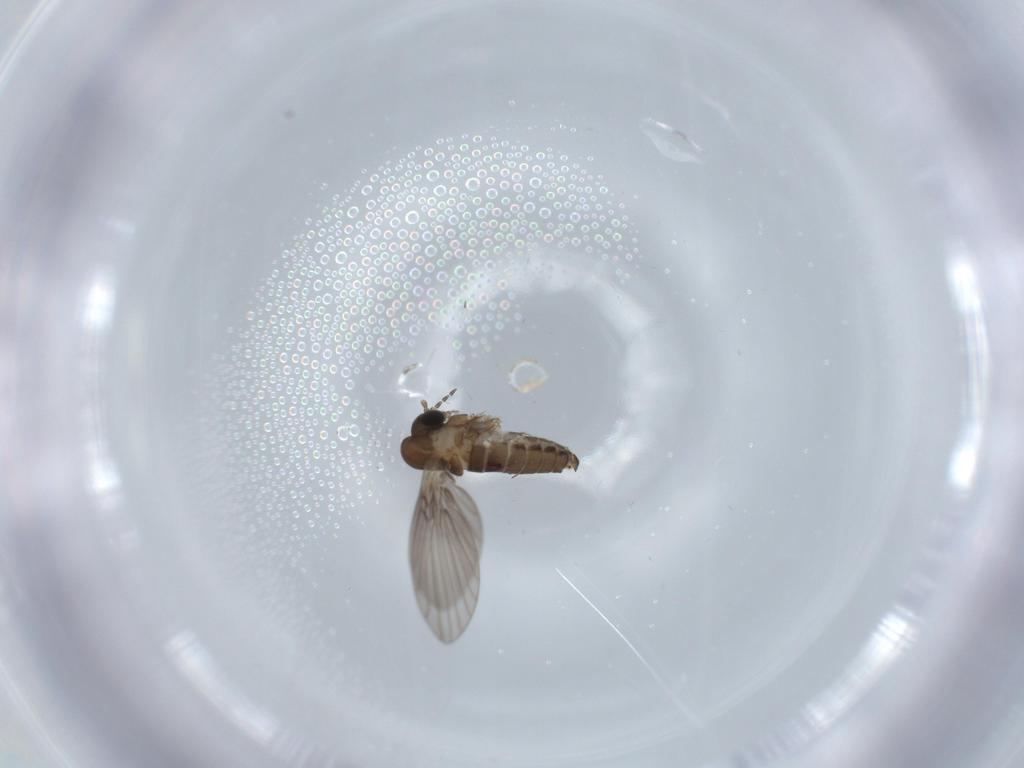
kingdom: Animalia
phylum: Arthropoda
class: Insecta
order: Diptera
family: Psychodidae
